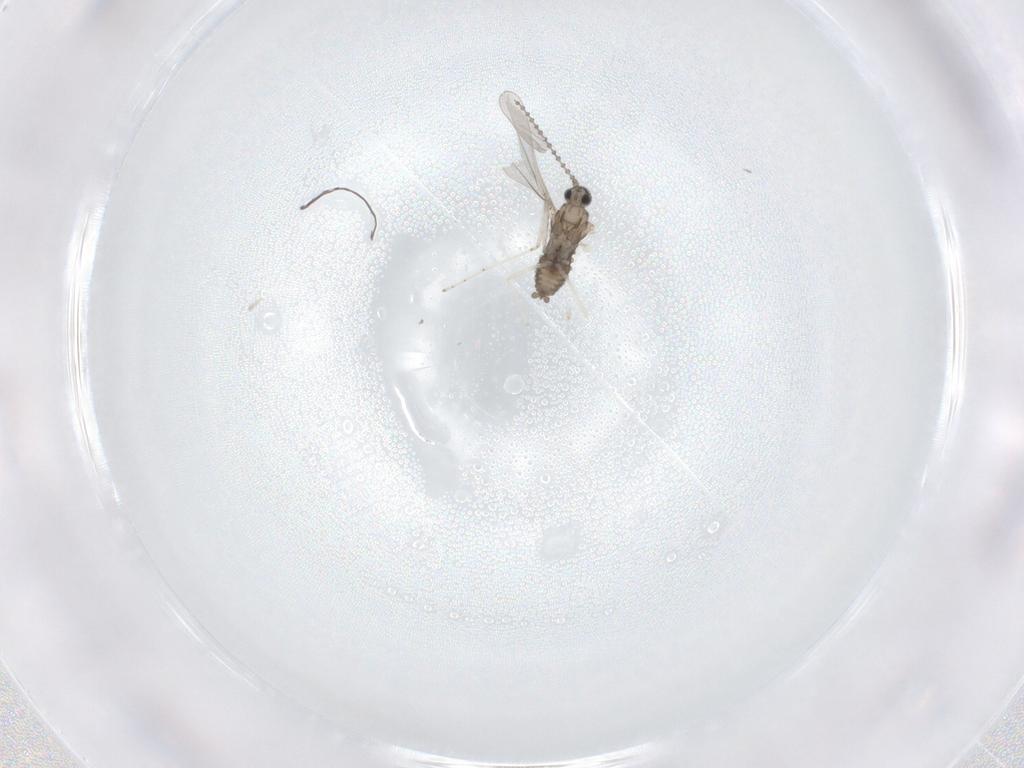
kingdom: Animalia
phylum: Arthropoda
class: Insecta
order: Diptera
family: Cecidomyiidae
